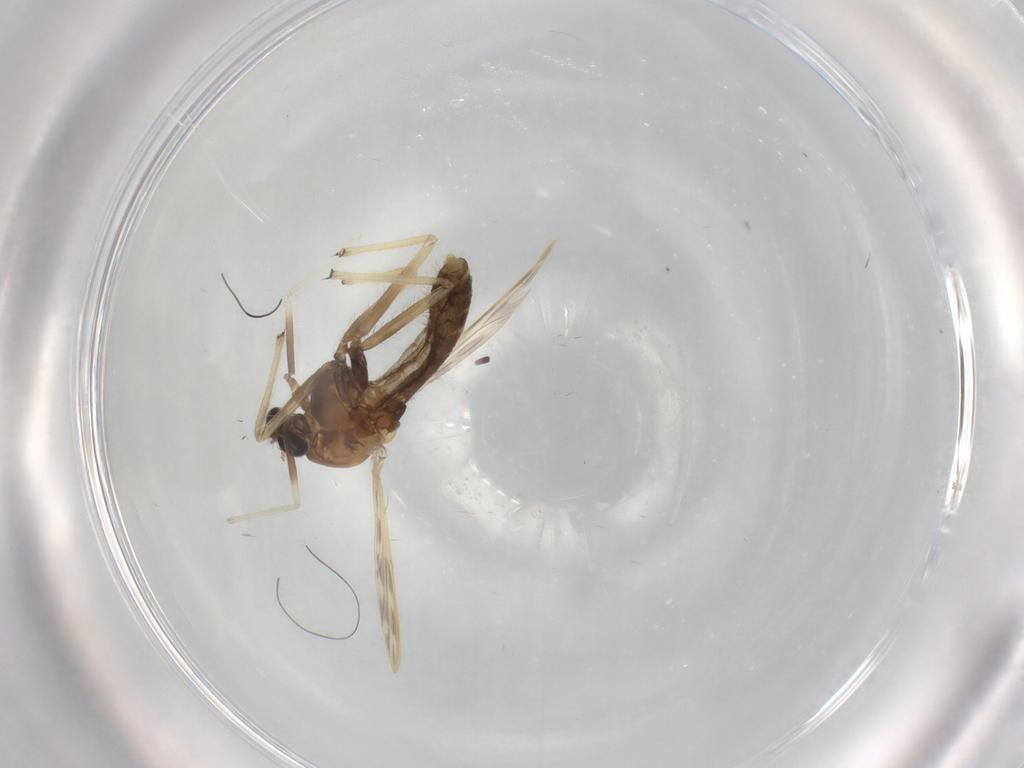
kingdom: Animalia
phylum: Arthropoda
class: Insecta
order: Diptera
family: Chironomidae
